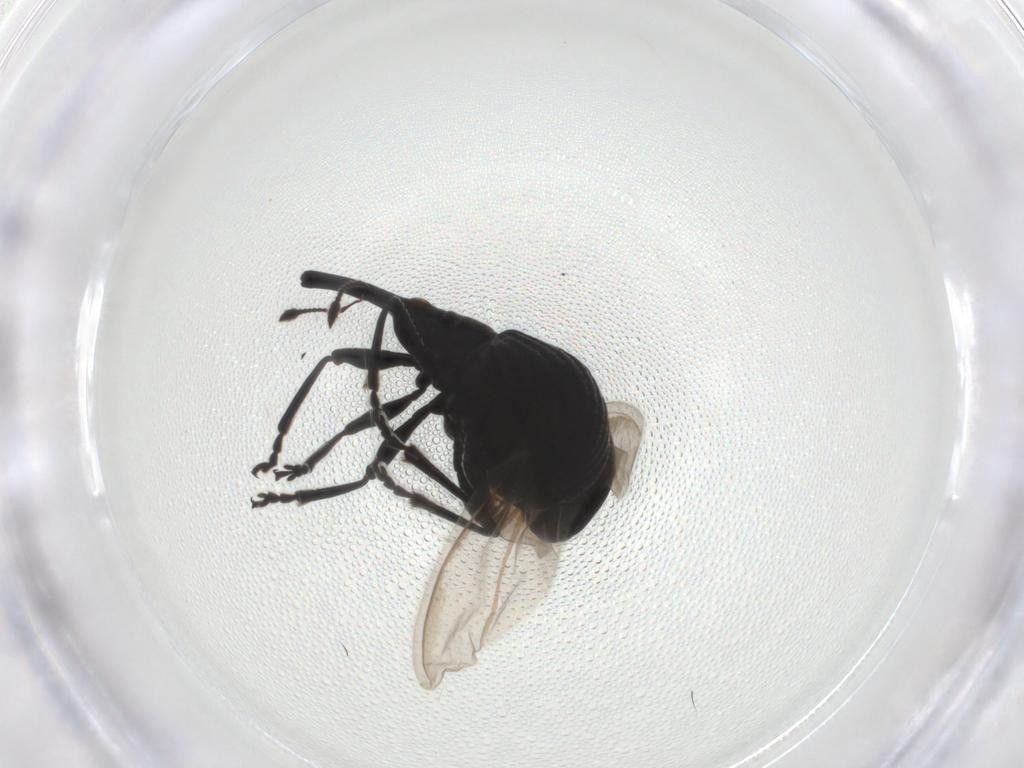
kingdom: Animalia
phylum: Arthropoda
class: Insecta
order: Coleoptera
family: Brentidae
